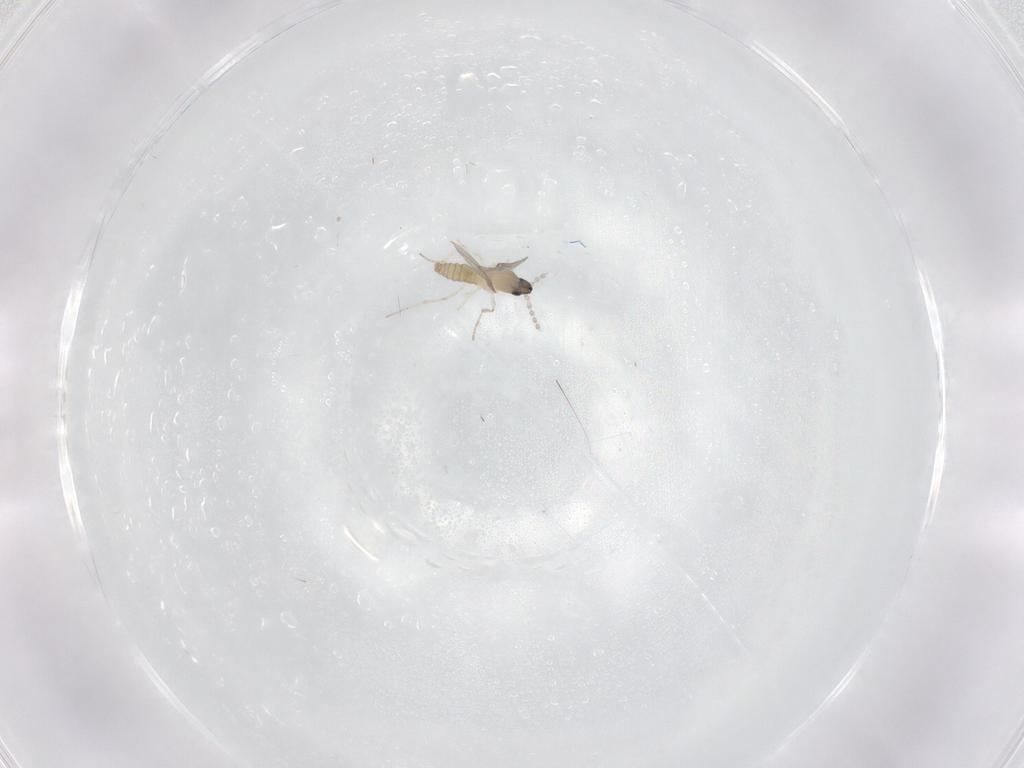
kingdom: Animalia
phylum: Arthropoda
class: Insecta
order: Diptera
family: Cecidomyiidae
